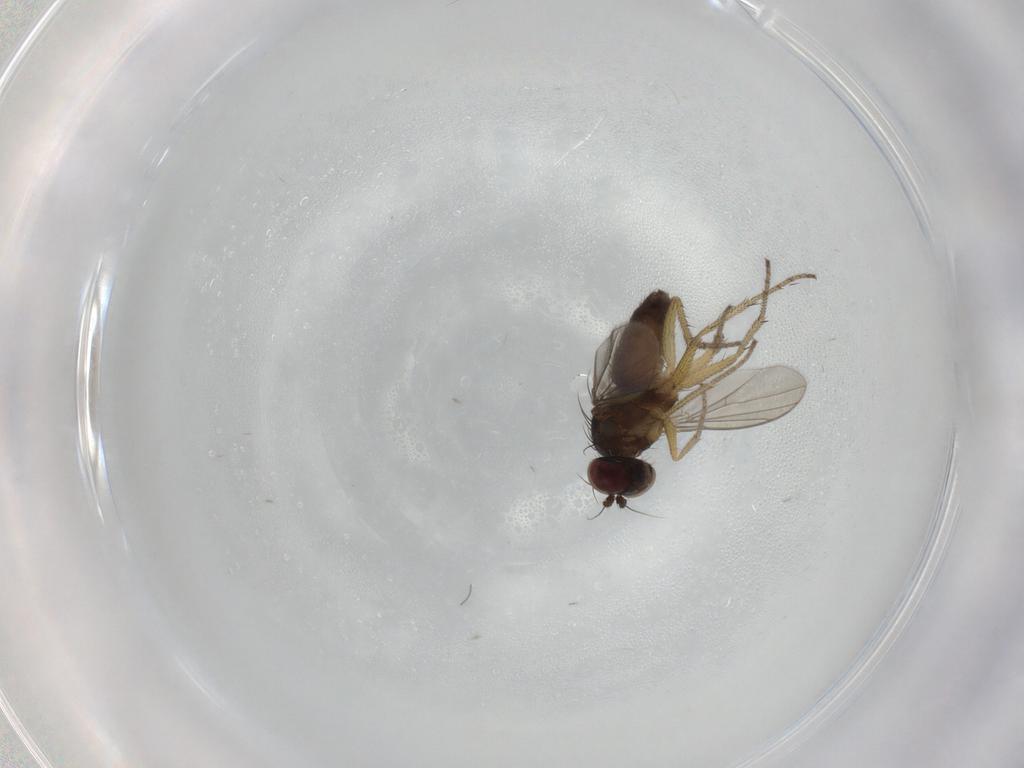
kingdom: Animalia
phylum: Arthropoda
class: Insecta
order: Diptera
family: Dolichopodidae
